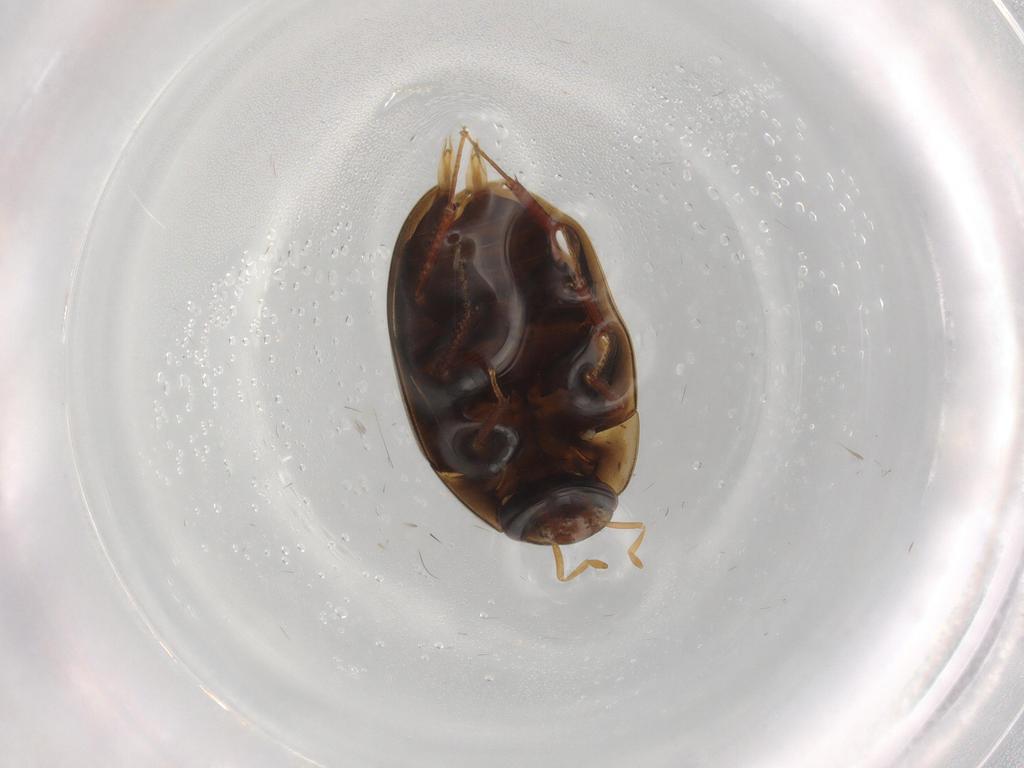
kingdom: Animalia
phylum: Arthropoda
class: Insecta
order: Coleoptera
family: Hydrophilidae
